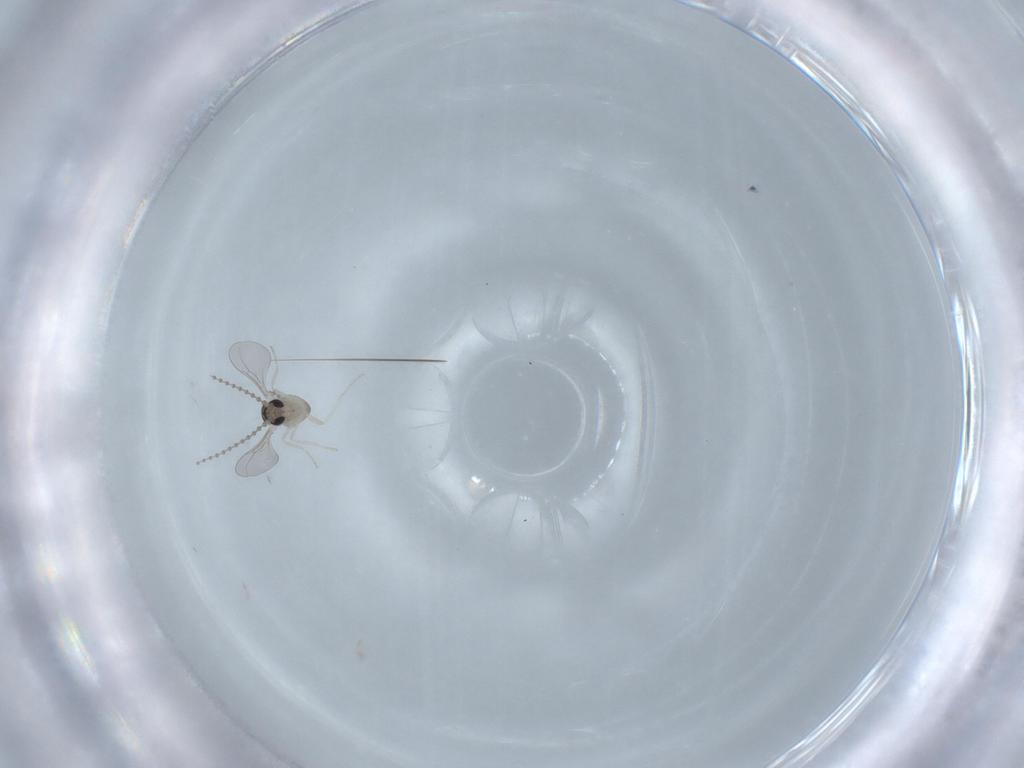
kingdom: Animalia
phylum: Arthropoda
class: Insecta
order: Diptera
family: Cecidomyiidae
